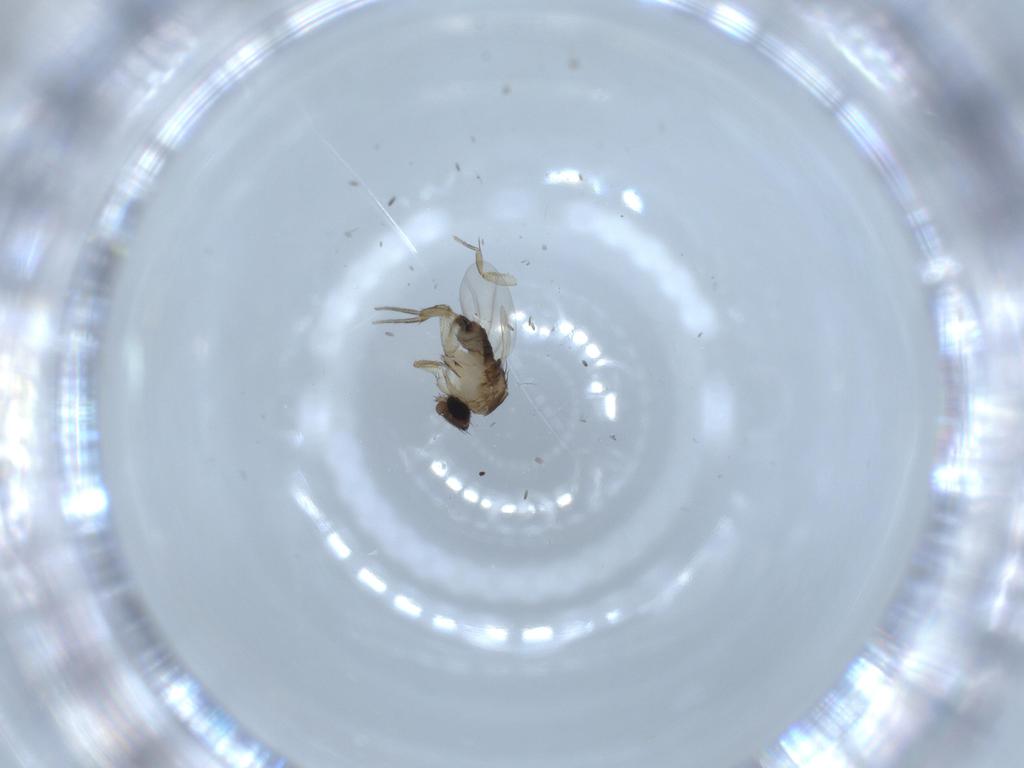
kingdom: Animalia
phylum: Arthropoda
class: Insecta
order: Diptera
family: Phoridae
